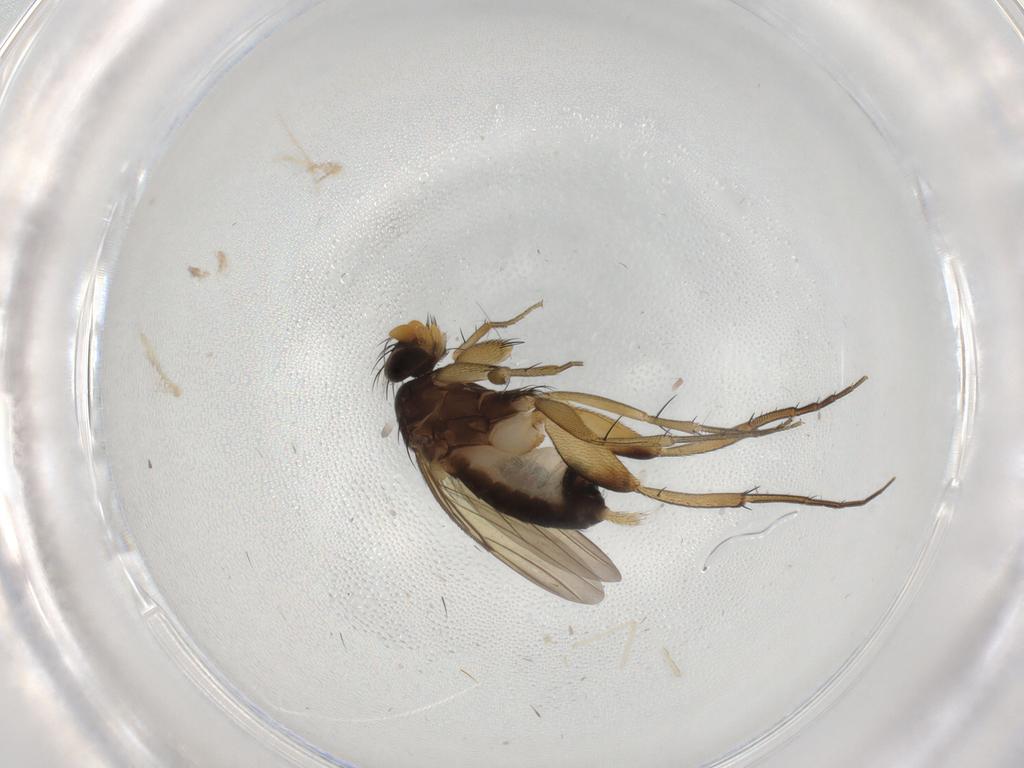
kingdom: Animalia
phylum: Arthropoda
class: Insecta
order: Diptera
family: Phoridae
